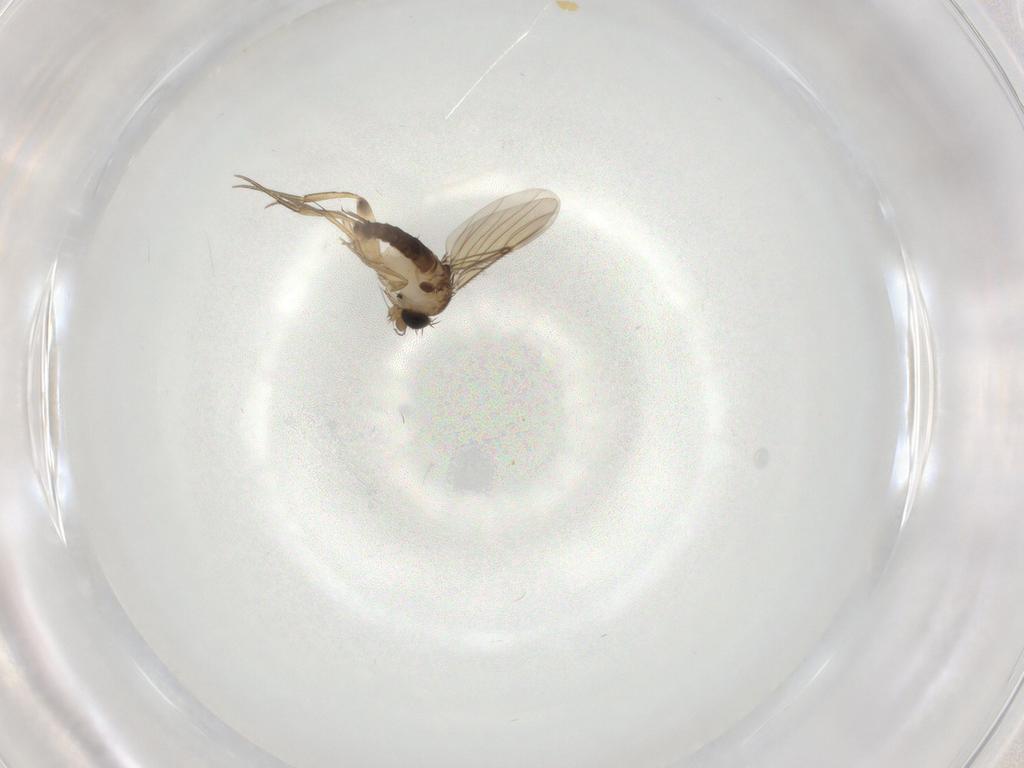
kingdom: Animalia
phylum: Arthropoda
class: Insecta
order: Diptera
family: Phoridae
